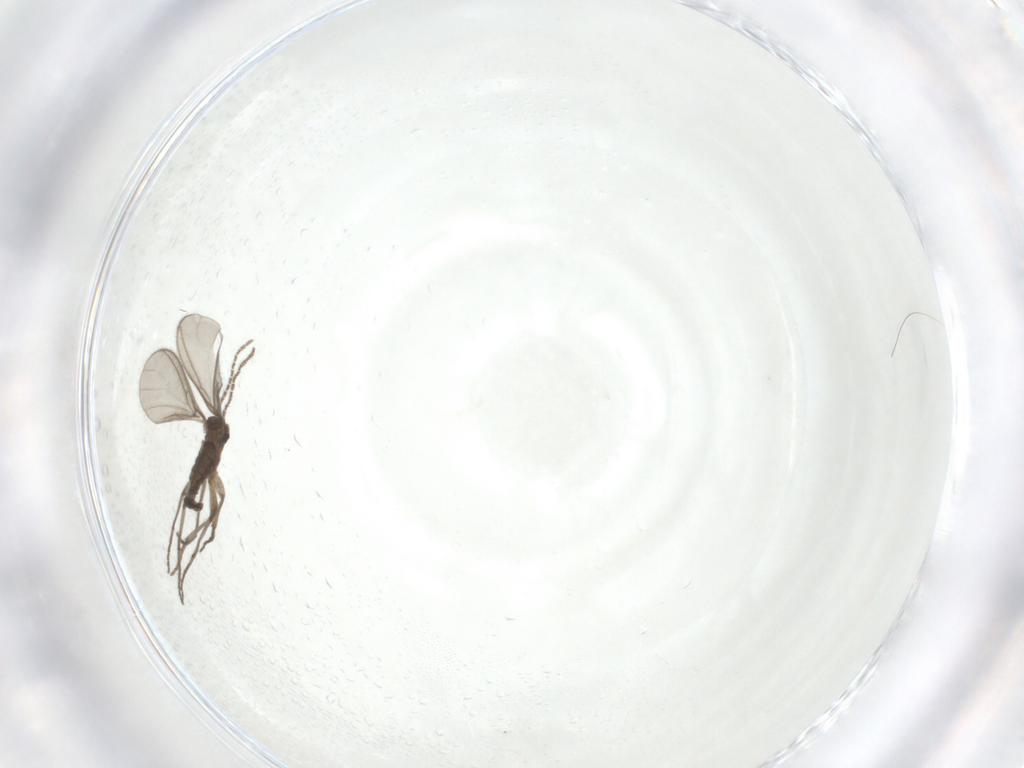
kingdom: Animalia
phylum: Arthropoda
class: Insecta
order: Diptera
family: Sciaridae
